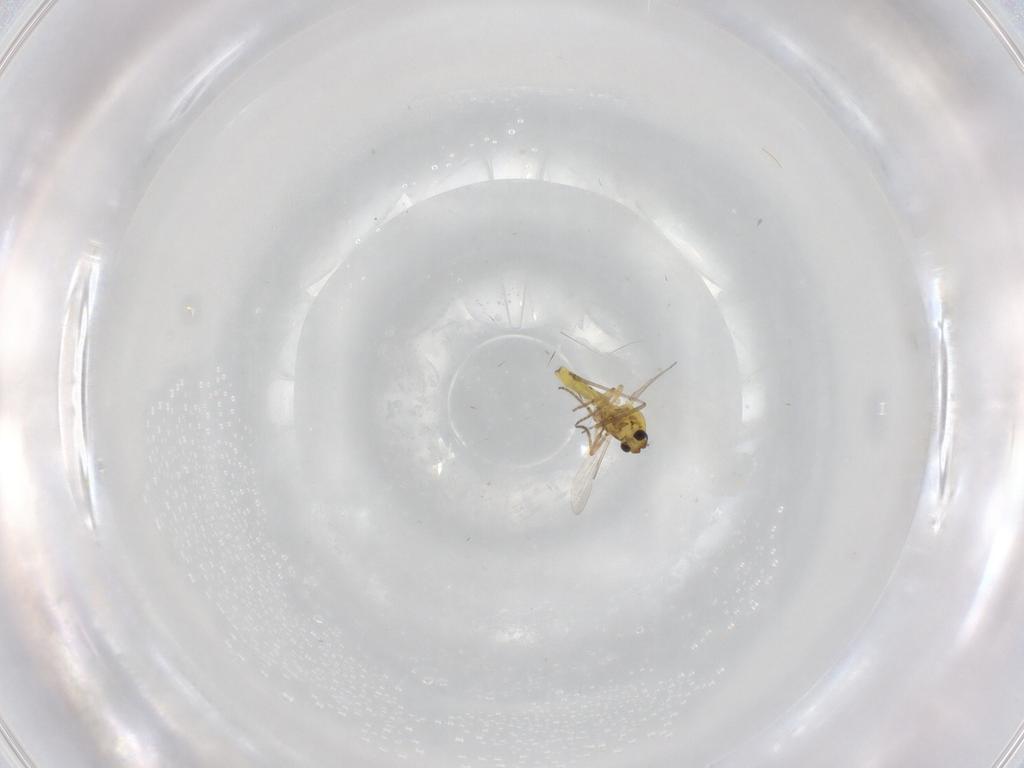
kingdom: Animalia
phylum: Arthropoda
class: Insecta
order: Diptera
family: Ceratopogonidae
